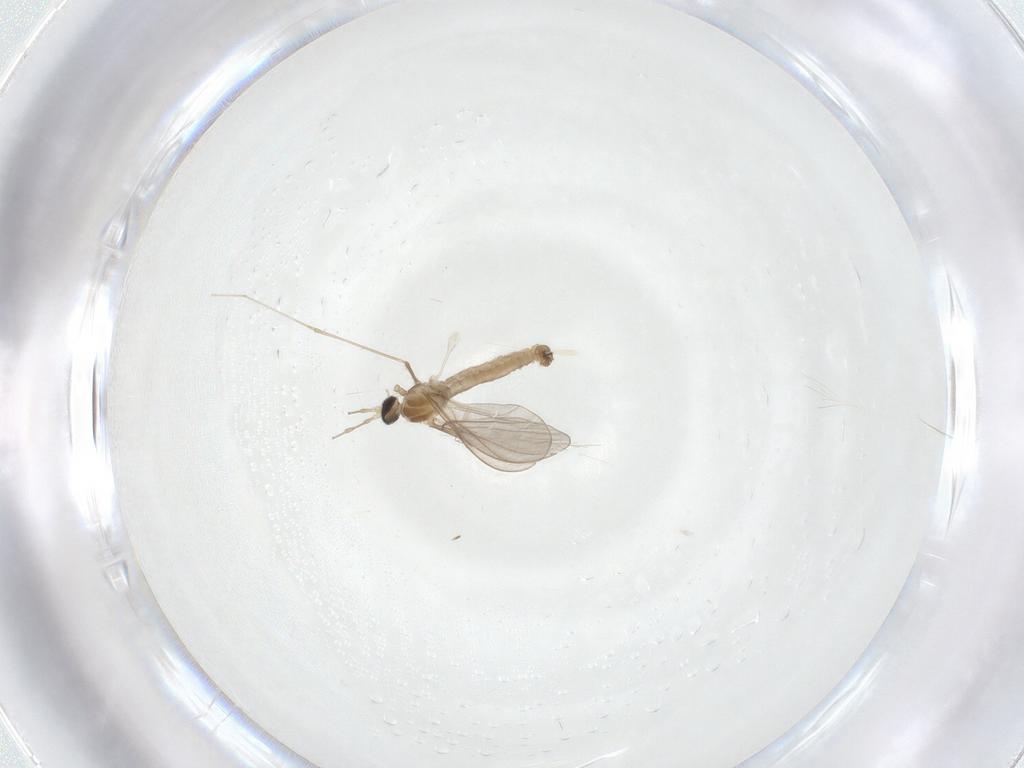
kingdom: Animalia
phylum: Arthropoda
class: Insecta
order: Diptera
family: Cecidomyiidae
